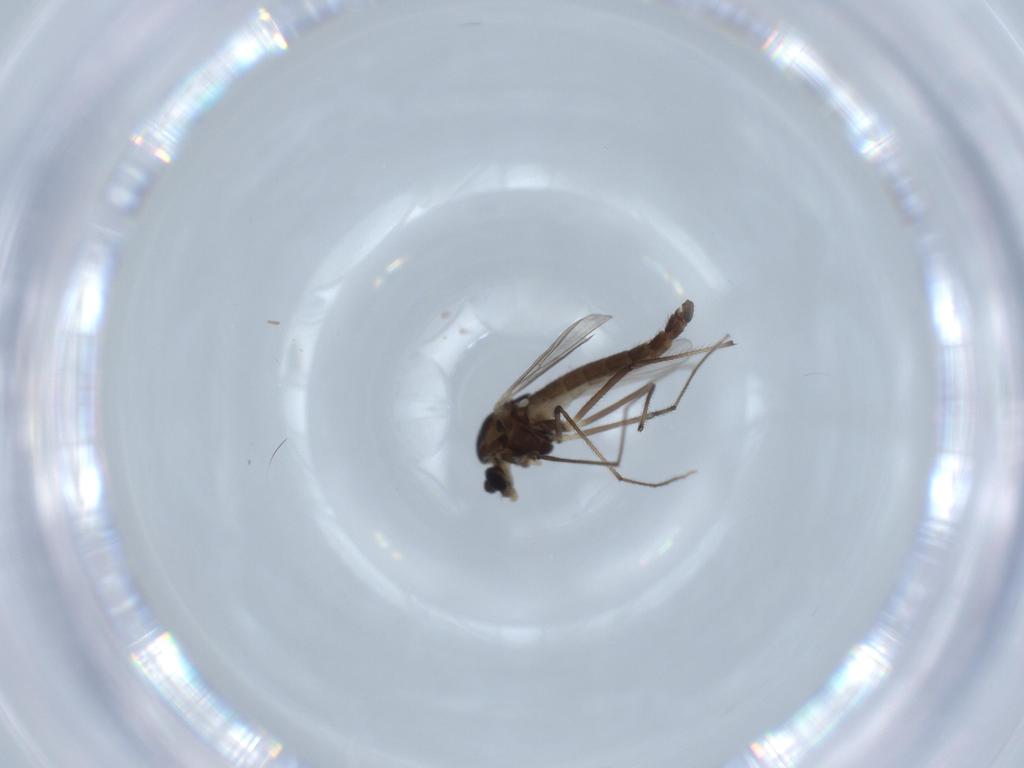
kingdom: Animalia
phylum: Arthropoda
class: Insecta
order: Diptera
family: Chironomidae
